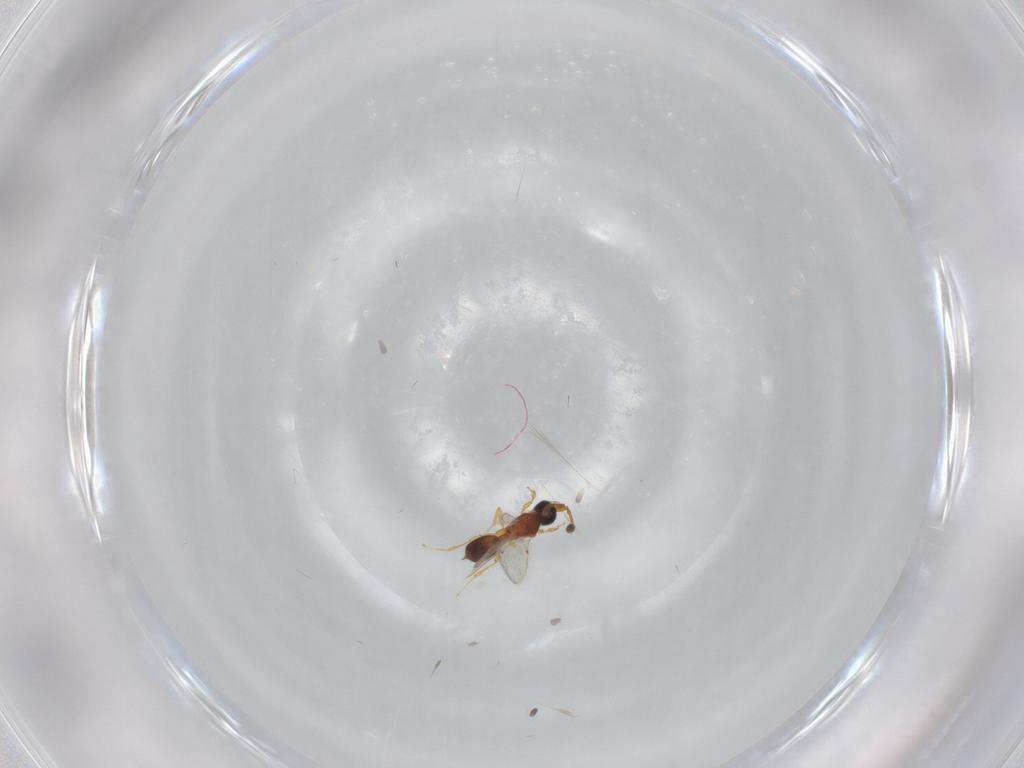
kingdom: Animalia
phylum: Arthropoda
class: Insecta
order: Hymenoptera
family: Diapriidae
